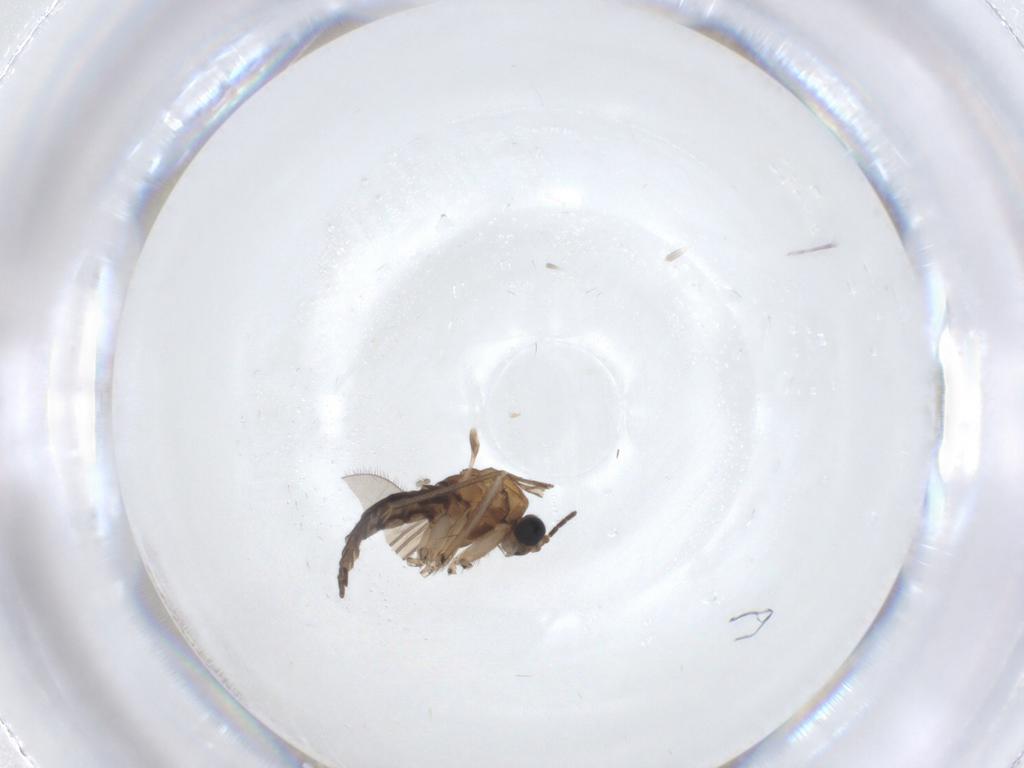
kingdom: Animalia
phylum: Arthropoda
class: Insecta
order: Diptera
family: Sciaridae
